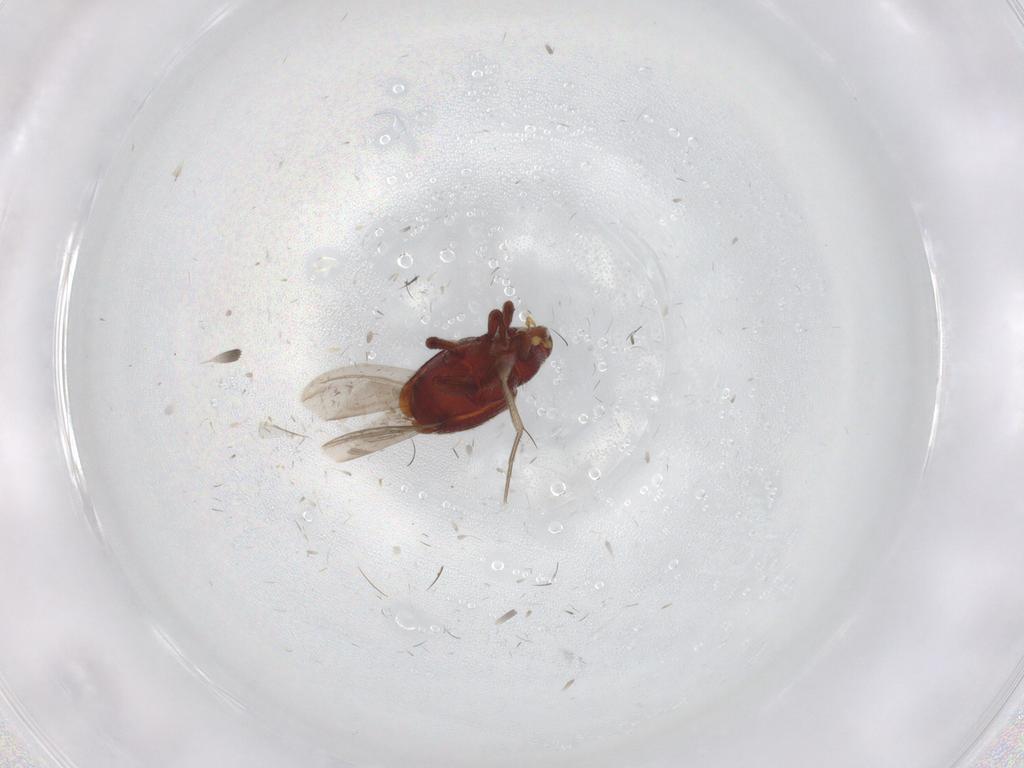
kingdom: Animalia
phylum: Arthropoda
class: Insecta
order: Coleoptera
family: Curculionidae
